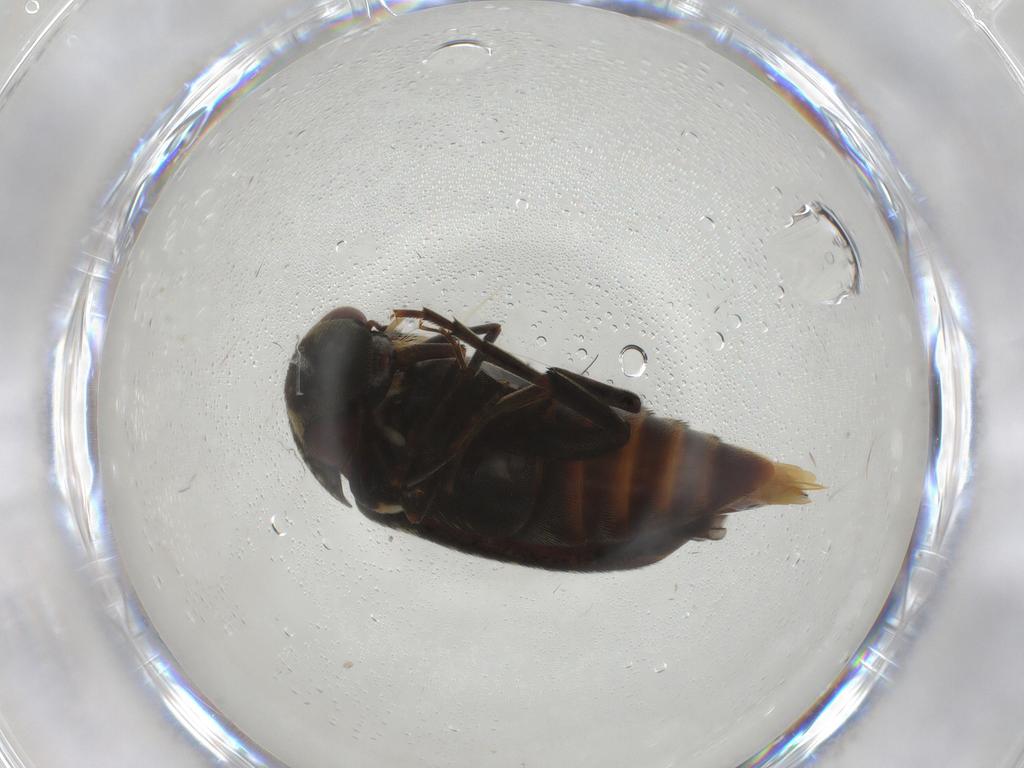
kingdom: Animalia
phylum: Arthropoda
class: Insecta
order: Coleoptera
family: Mordellidae
